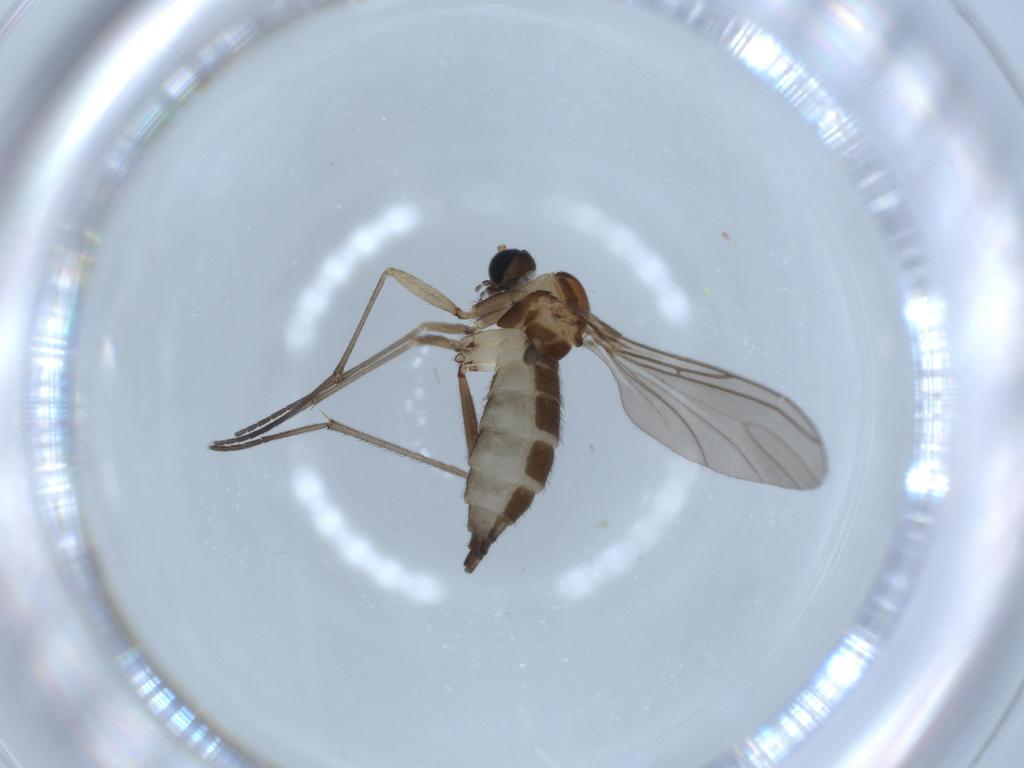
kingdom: Animalia
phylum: Arthropoda
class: Insecta
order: Diptera
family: Sciaridae
